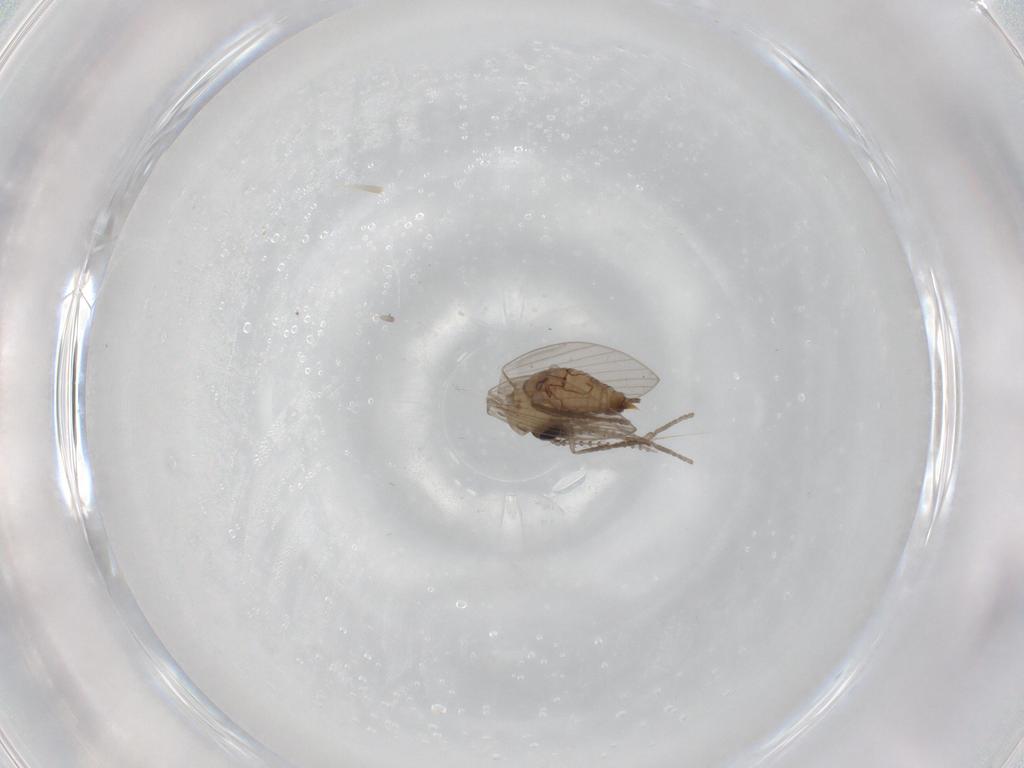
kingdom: Animalia
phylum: Arthropoda
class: Insecta
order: Diptera
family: Psychodidae
